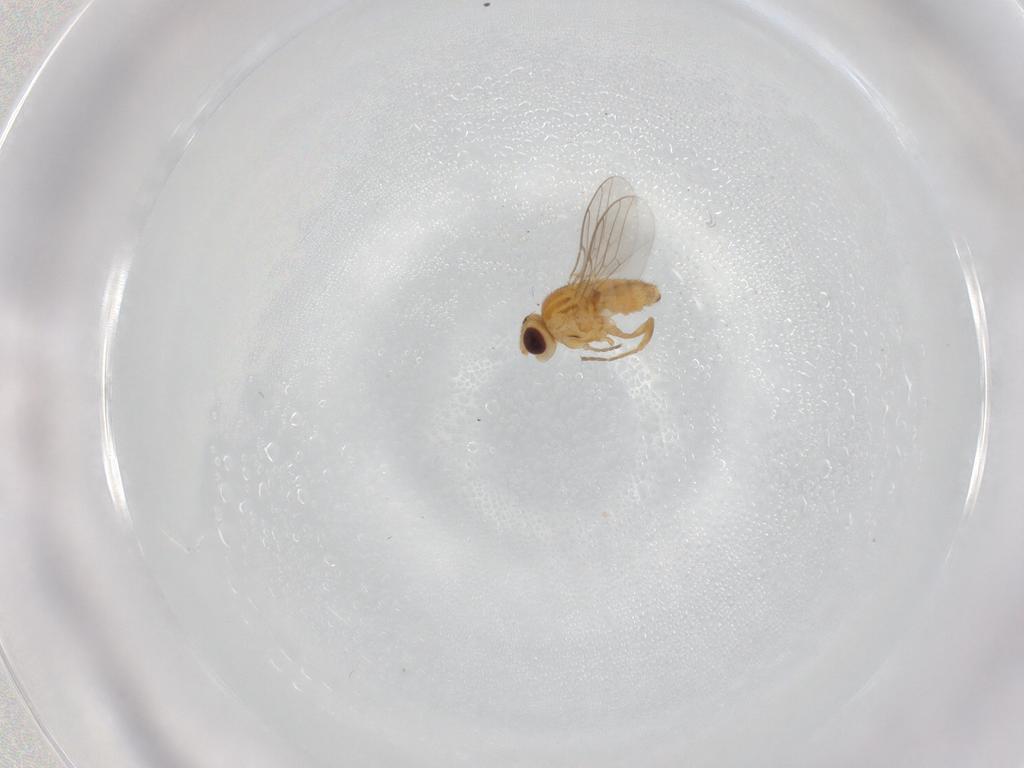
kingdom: Animalia
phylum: Arthropoda
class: Insecta
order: Diptera
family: Chloropidae
